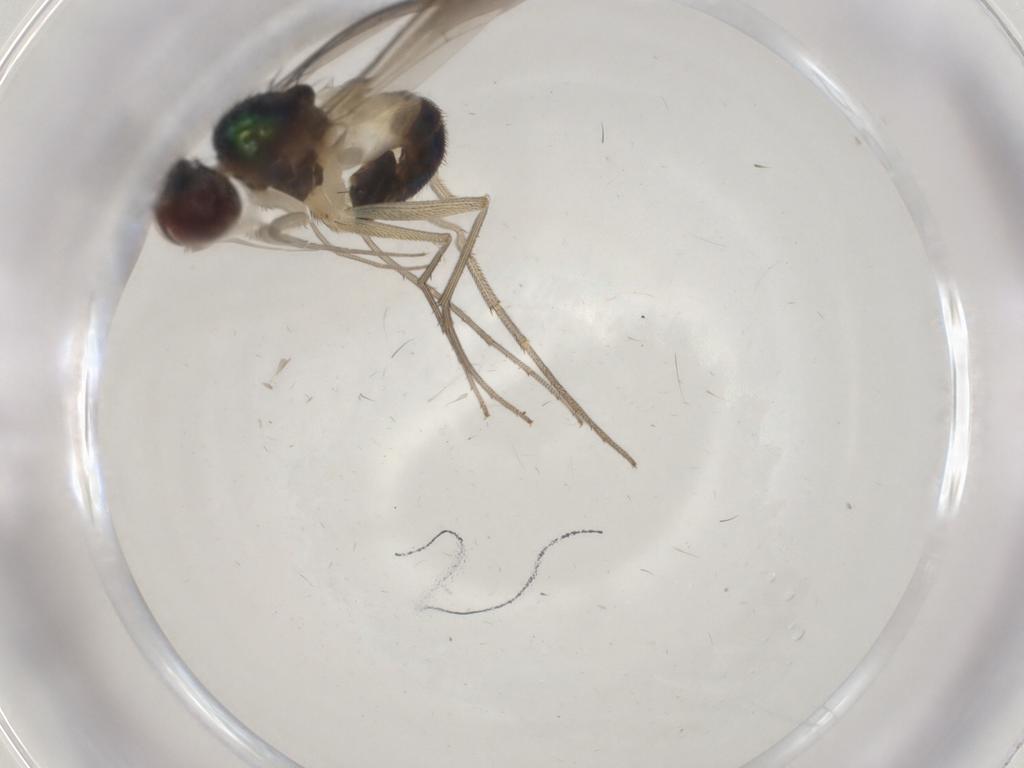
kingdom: Animalia
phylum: Arthropoda
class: Insecta
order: Diptera
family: Dolichopodidae
